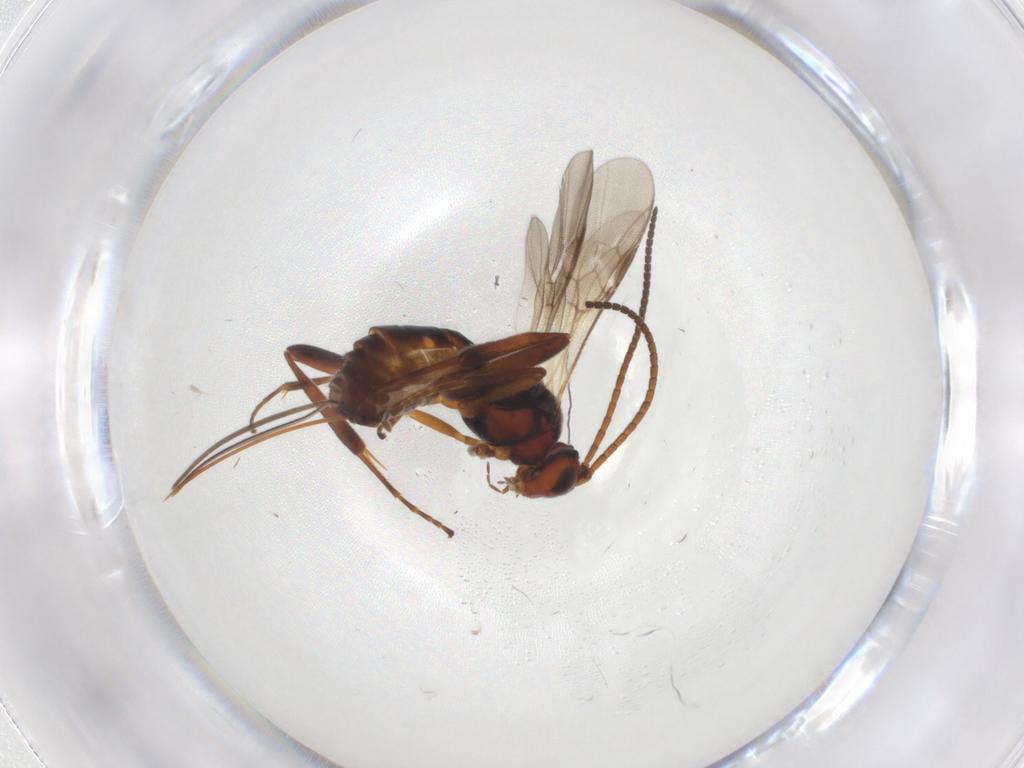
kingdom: Animalia
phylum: Arthropoda
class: Insecta
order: Hymenoptera
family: Braconidae
